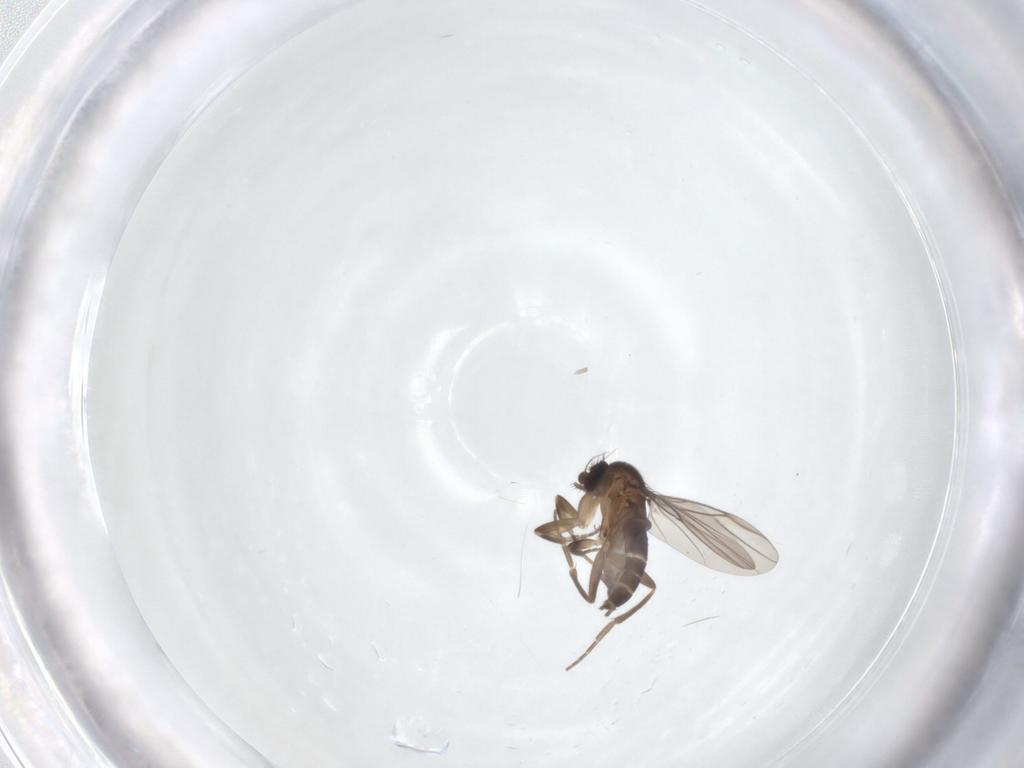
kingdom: Animalia
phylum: Arthropoda
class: Insecta
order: Diptera
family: Phoridae
